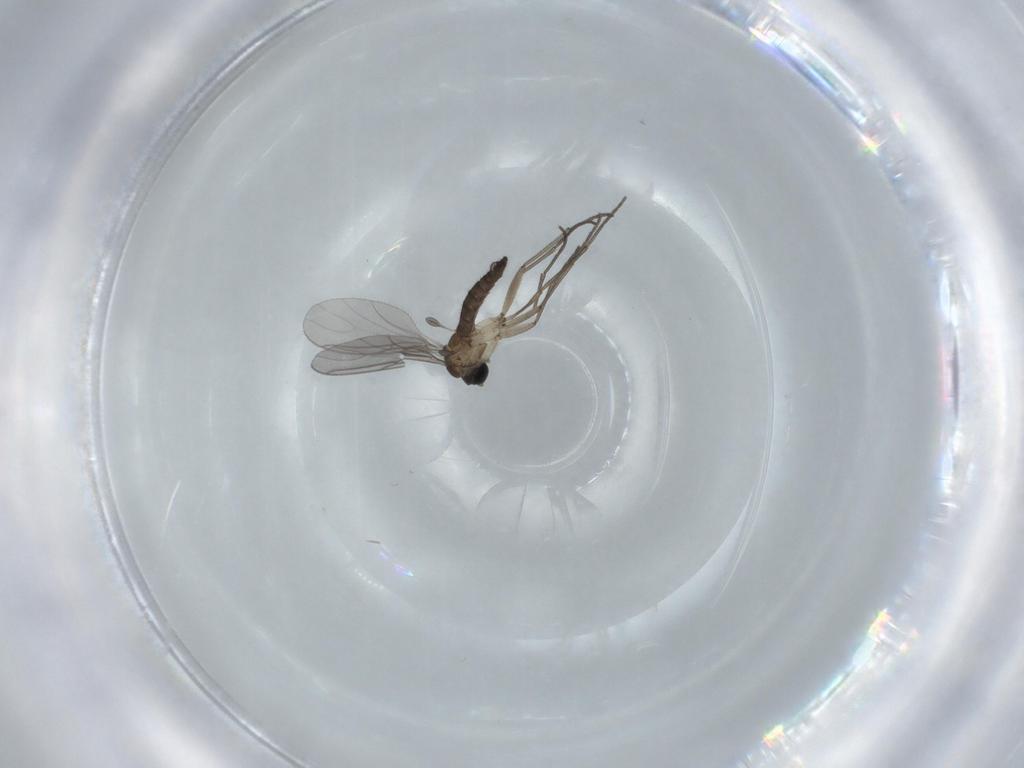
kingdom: Animalia
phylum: Arthropoda
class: Insecta
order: Diptera
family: Sciaridae
